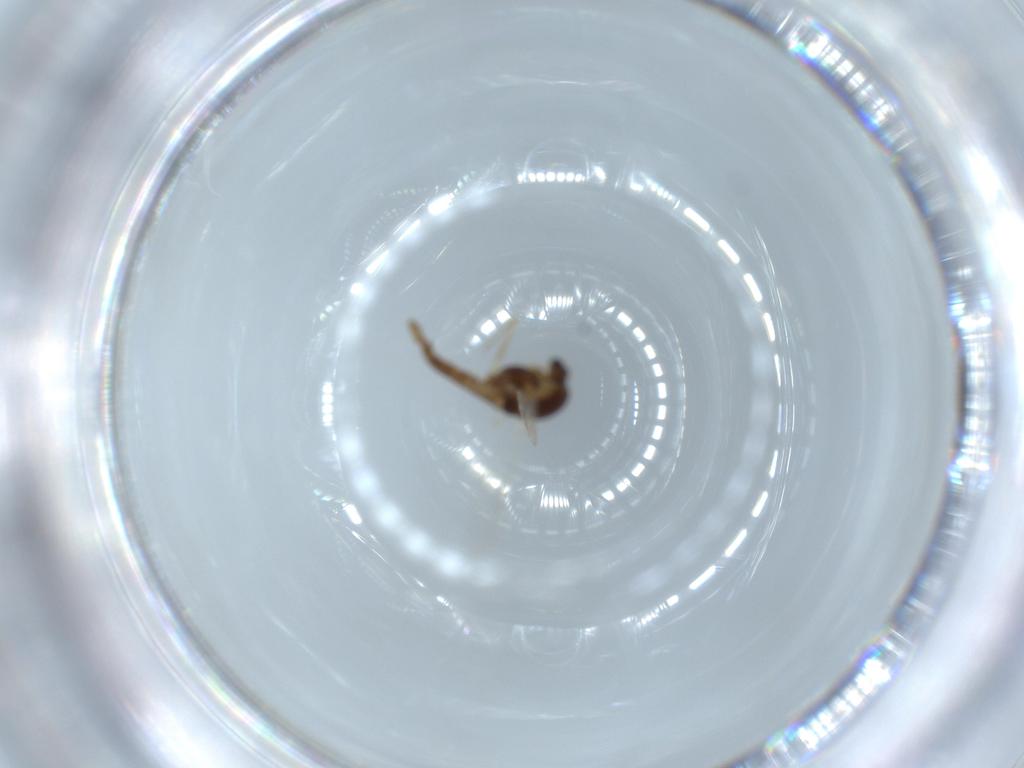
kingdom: Animalia
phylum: Arthropoda
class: Insecta
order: Diptera
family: Chironomidae
